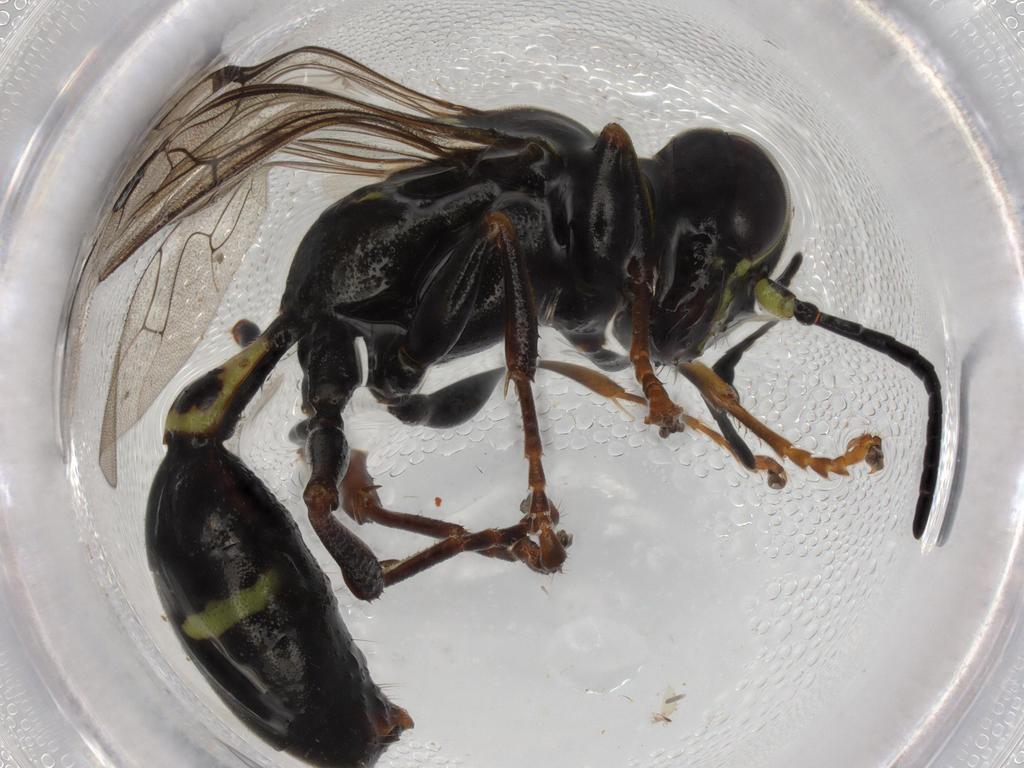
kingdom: Animalia
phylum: Arthropoda
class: Insecta
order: Hymenoptera
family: Mellinidae
